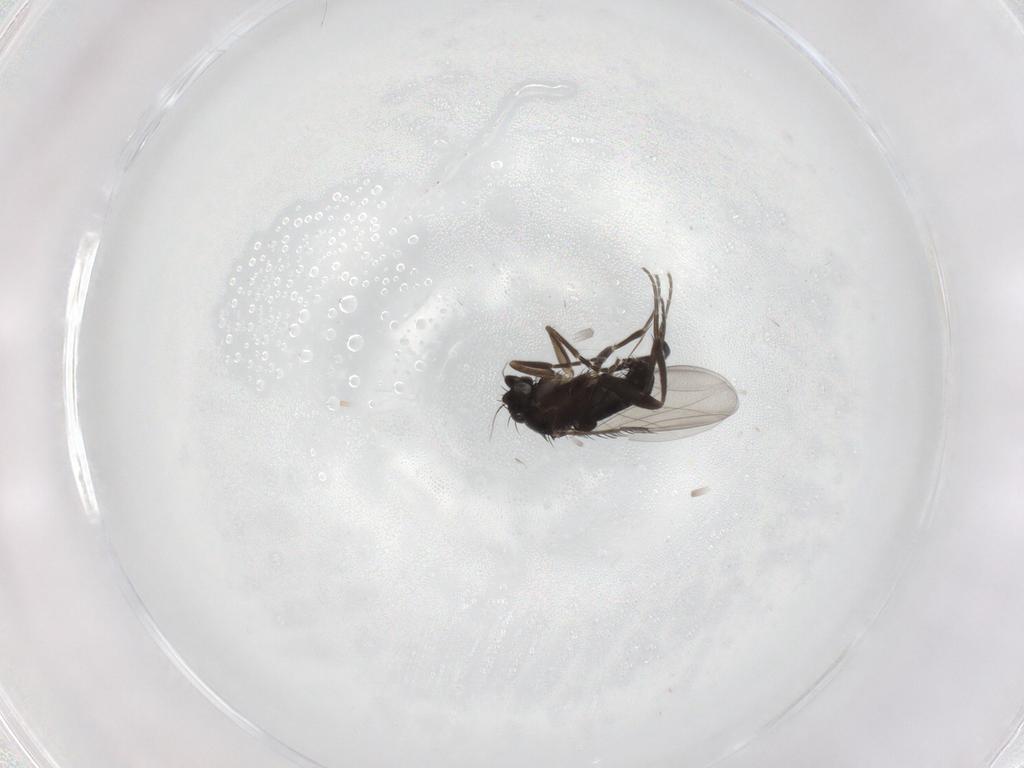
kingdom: Animalia
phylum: Arthropoda
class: Insecta
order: Diptera
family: Phoridae
